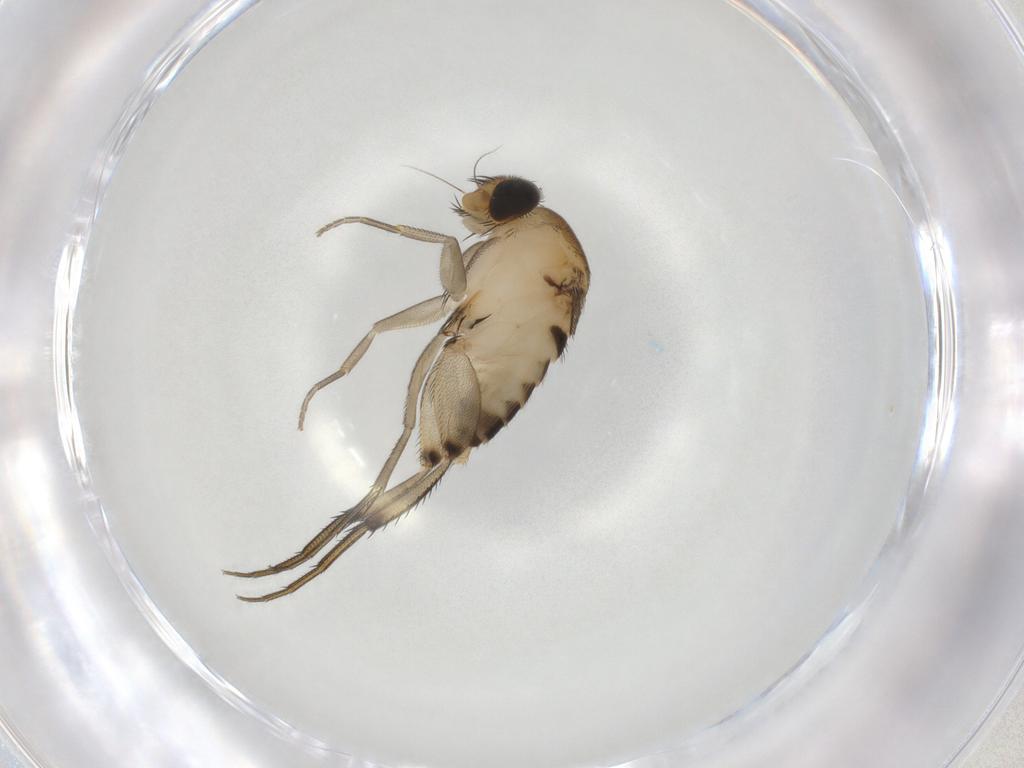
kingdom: Animalia
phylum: Arthropoda
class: Insecta
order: Diptera
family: Phoridae
